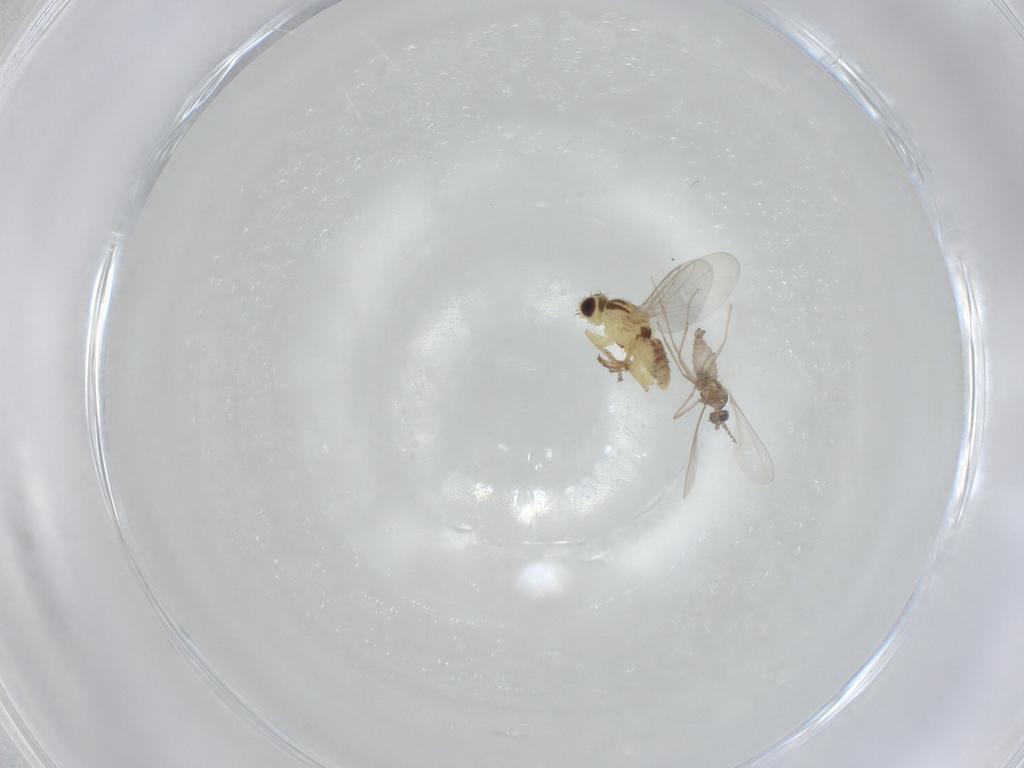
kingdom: Animalia
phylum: Arthropoda
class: Insecta
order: Diptera
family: Cecidomyiidae
